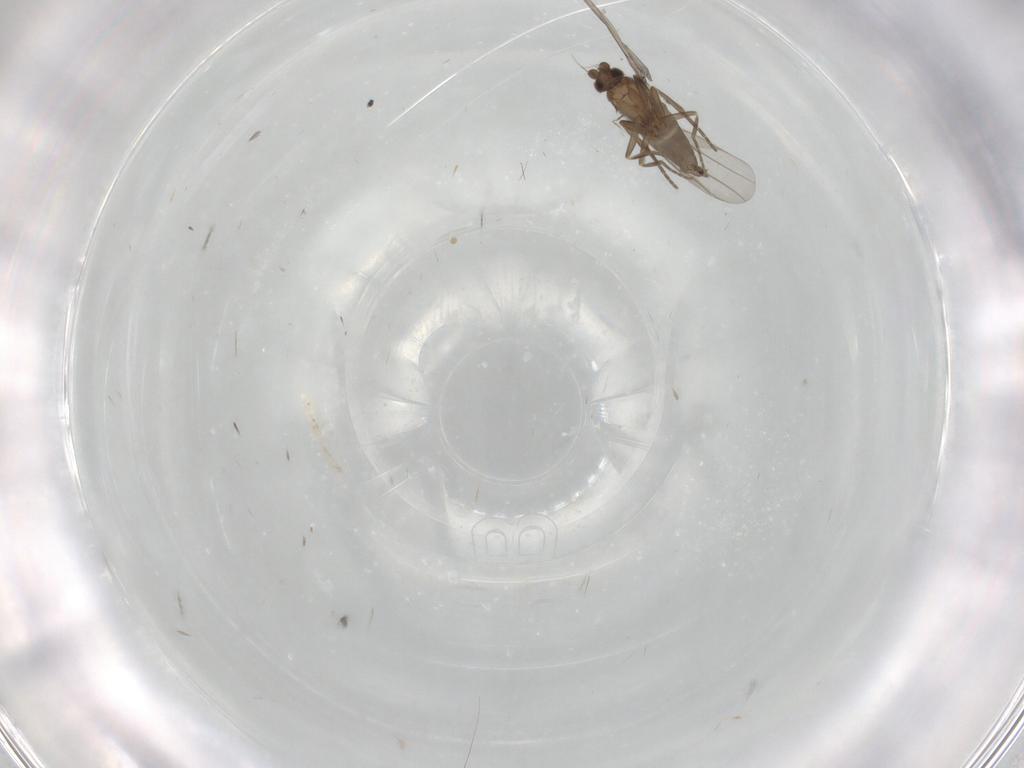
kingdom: Animalia
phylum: Arthropoda
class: Insecta
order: Diptera
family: Phoridae
